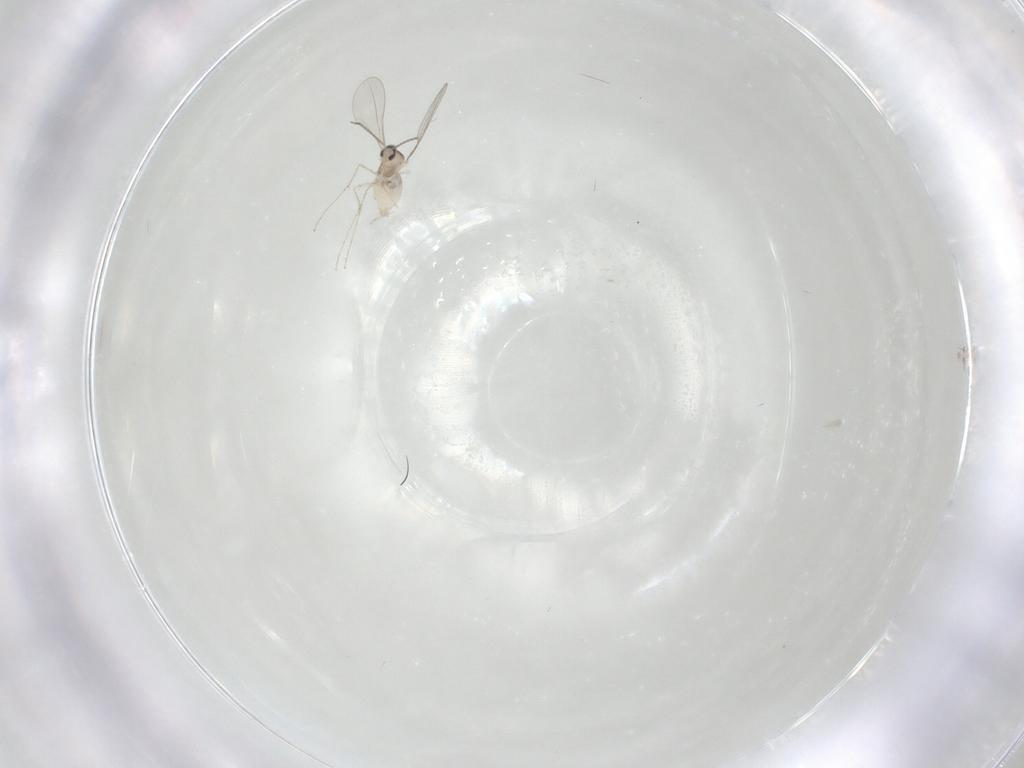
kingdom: Animalia
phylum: Arthropoda
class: Insecta
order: Diptera
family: Cecidomyiidae
